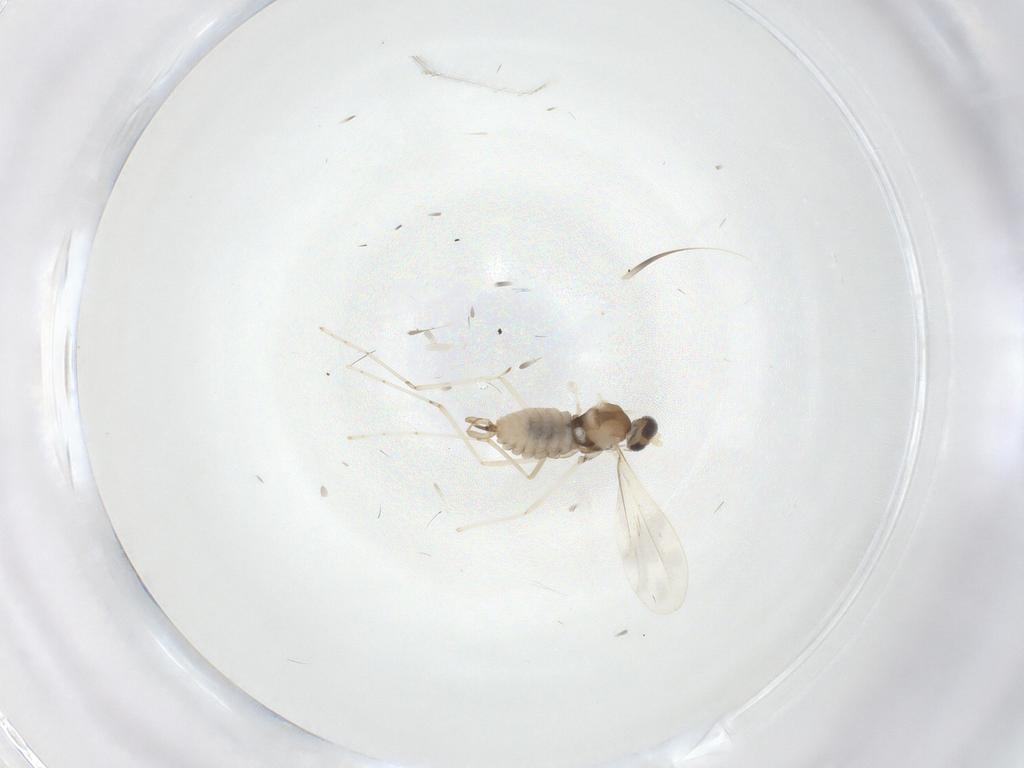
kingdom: Animalia
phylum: Arthropoda
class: Insecta
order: Diptera
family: Cecidomyiidae
